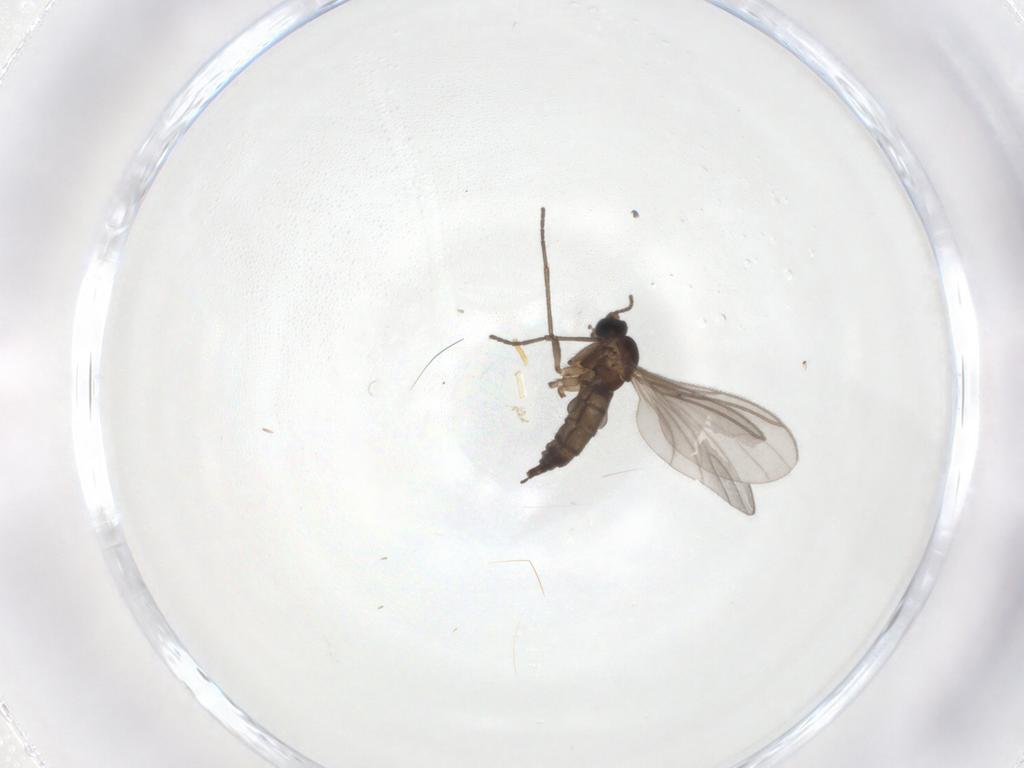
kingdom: Animalia
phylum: Arthropoda
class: Insecta
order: Diptera
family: Sciaridae
